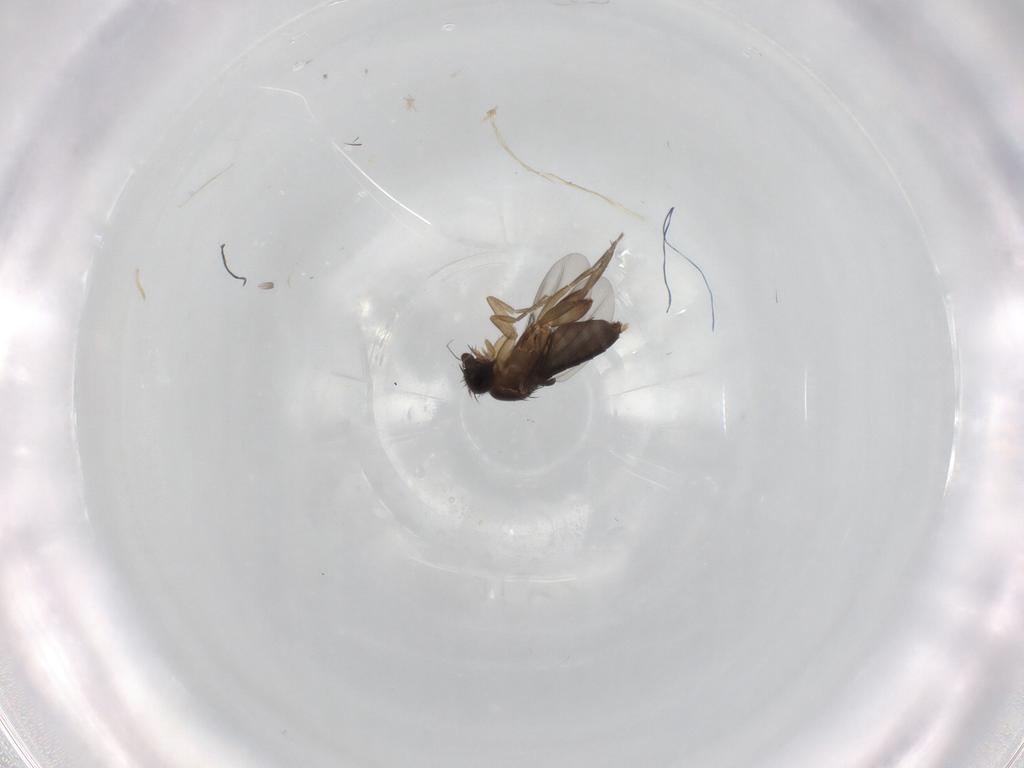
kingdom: Animalia
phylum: Arthropoda
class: Insecta
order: Diptera
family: Phoridae
